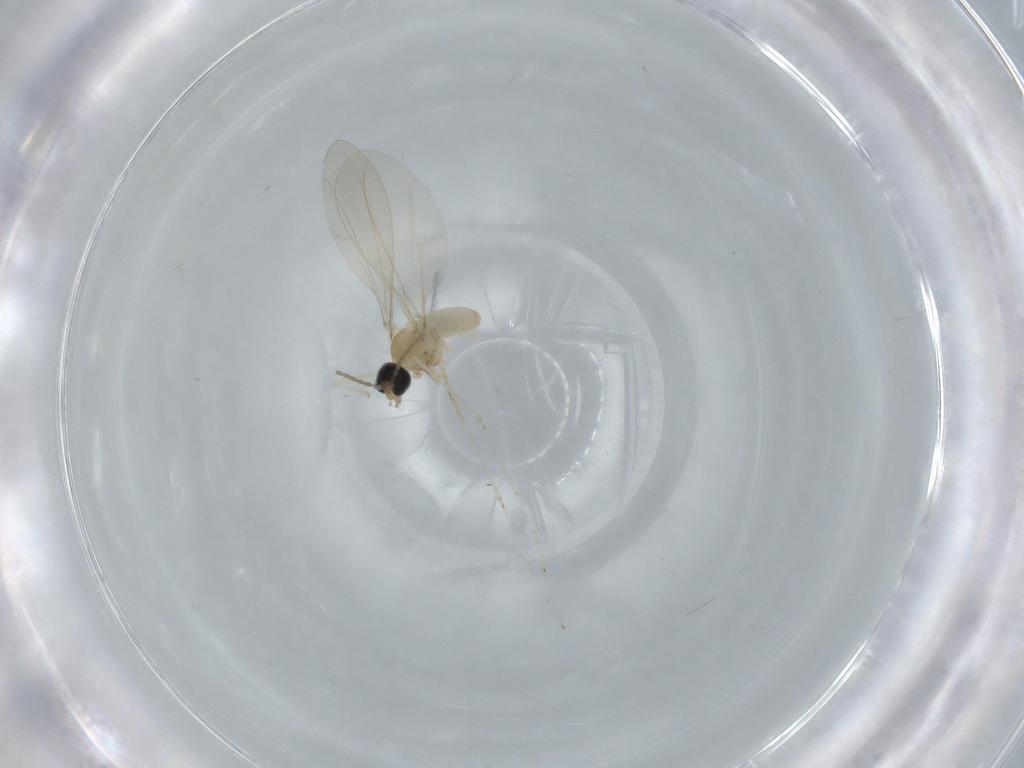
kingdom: Animalia
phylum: Arthropoda
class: Insecta
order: Diptera
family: Cecidomyiidae
